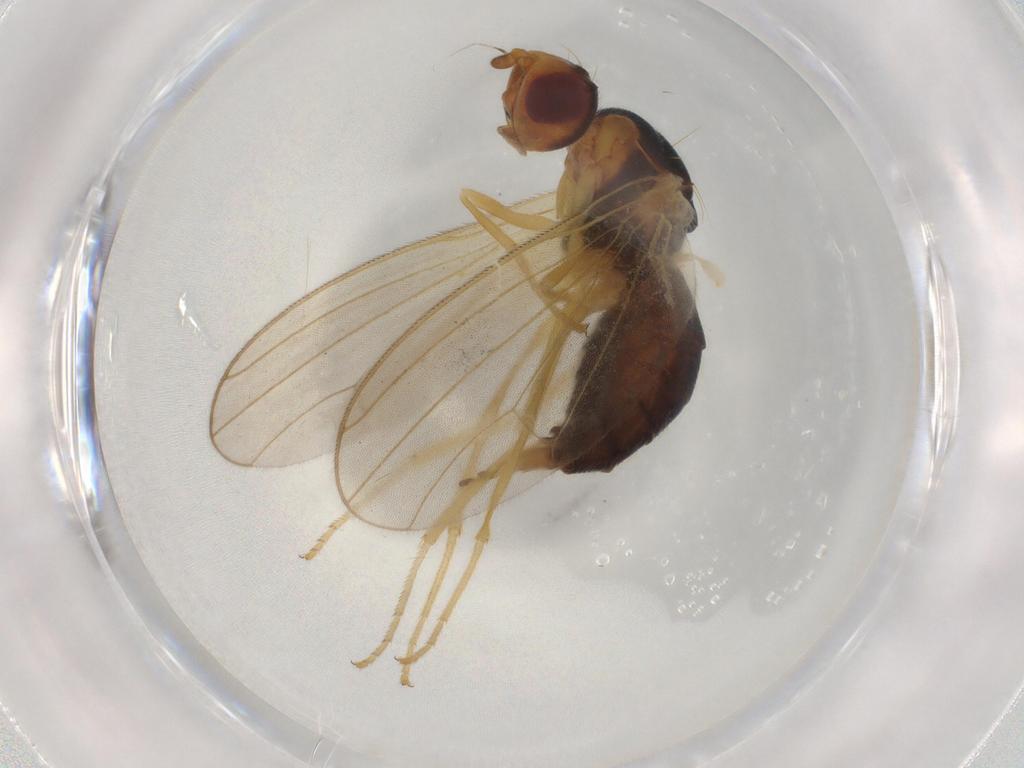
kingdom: Animalia
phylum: Arthropoda
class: Insecta
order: Diptera
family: Psilidae
